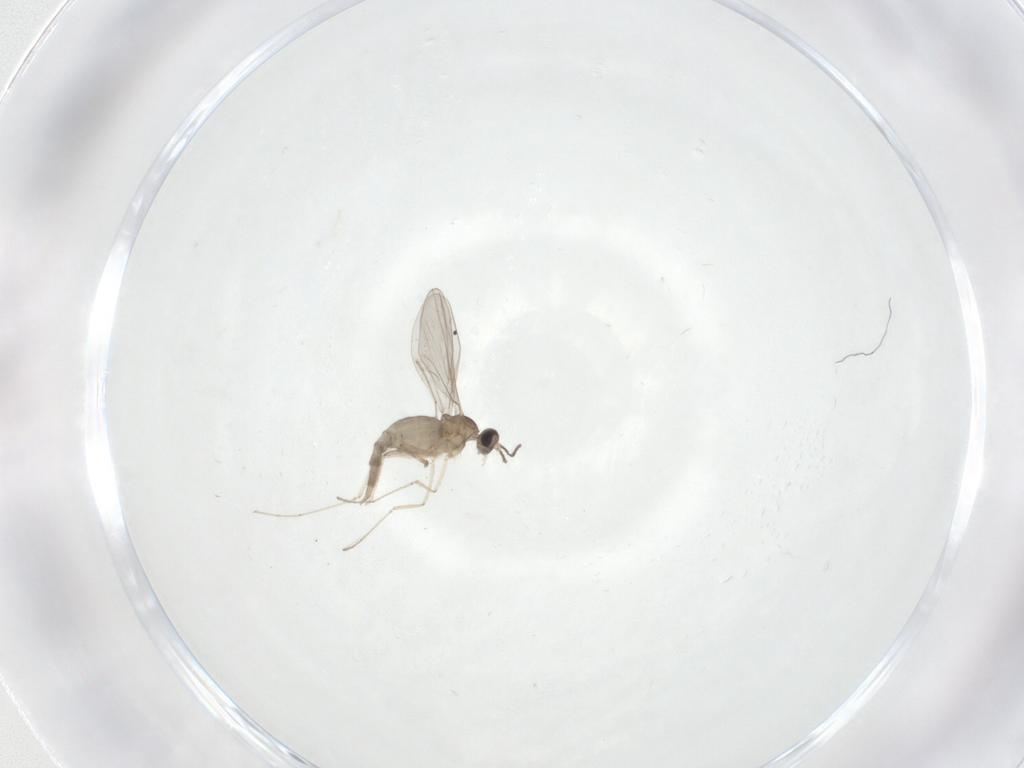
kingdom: Animalia
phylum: Arthropoda
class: Insecta
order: Diptera
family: Cecidomyiidae
